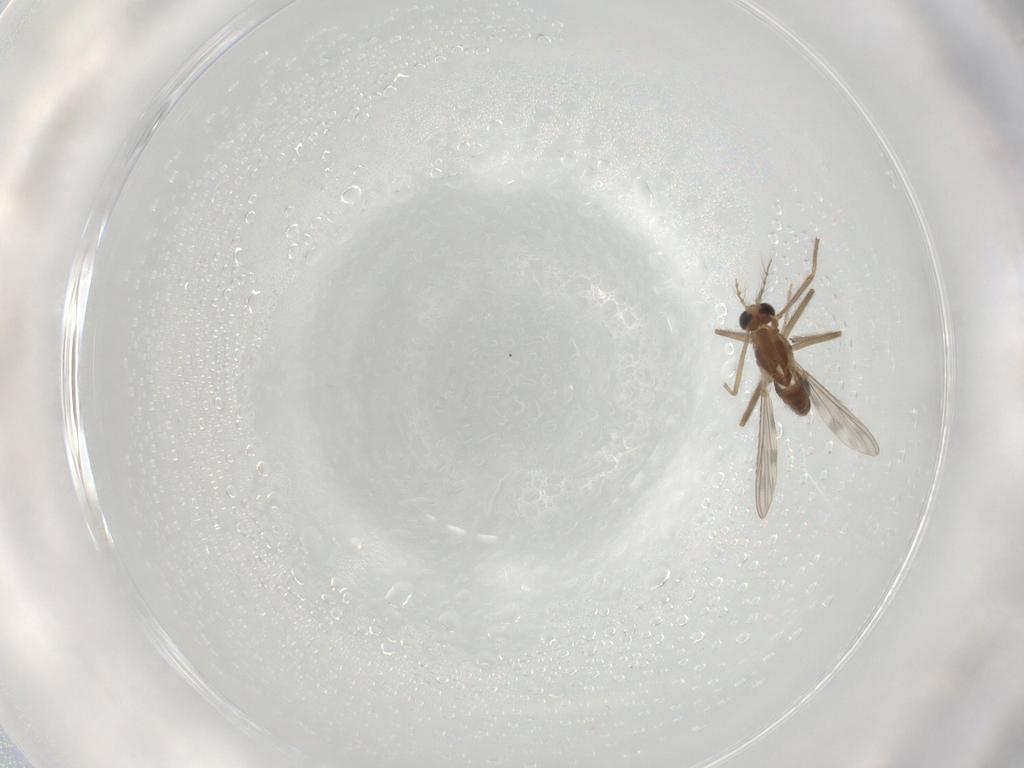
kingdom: Animalia
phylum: Arthropoda
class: Insecta
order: Diptera
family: Chironomidae
